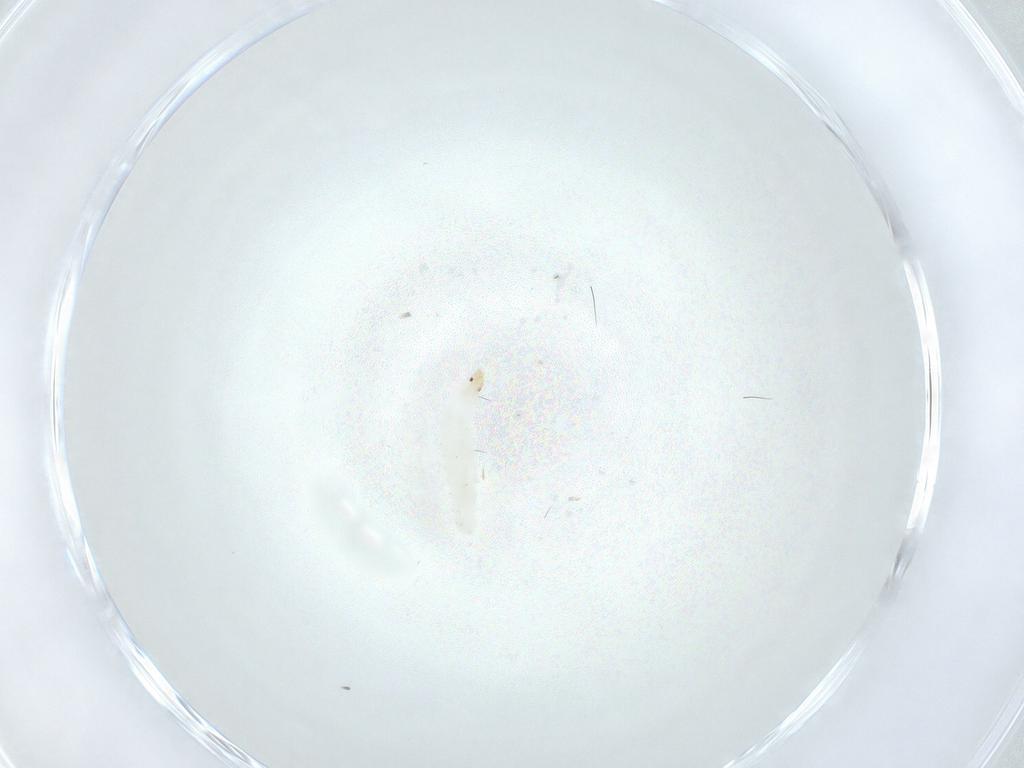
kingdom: Animalia
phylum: Arthropoda
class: Insecta
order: Diptera
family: Stratiomyidae
